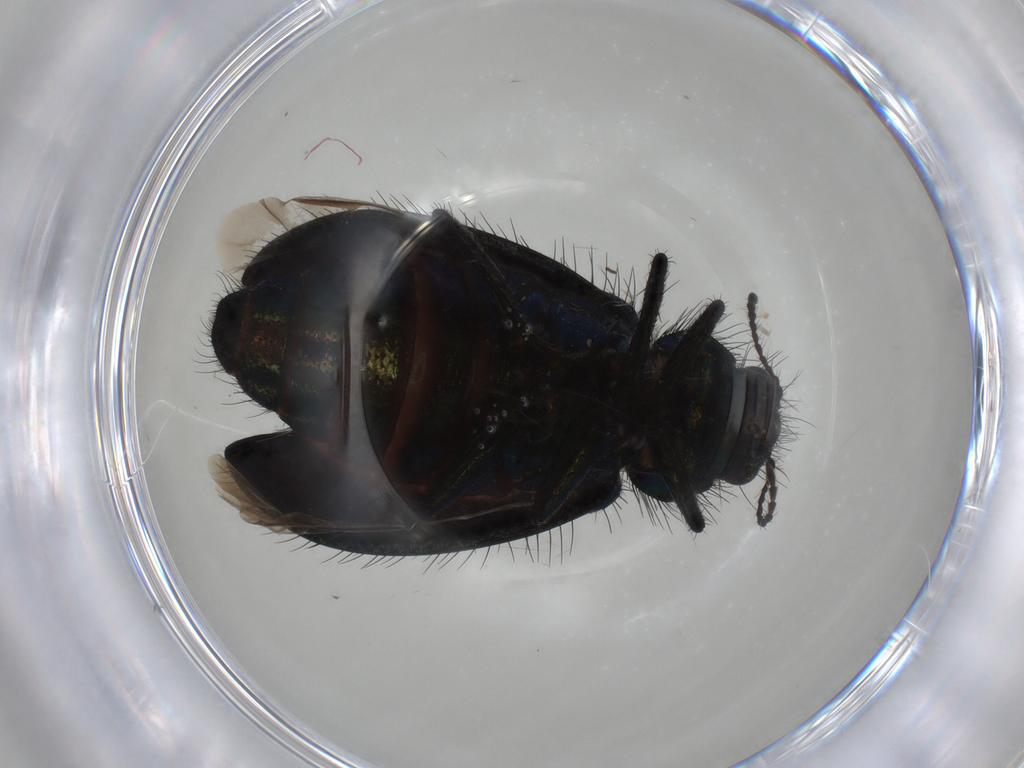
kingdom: Animalia
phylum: Arthropoda
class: Insecta
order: Coleoptera
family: Melyridae
